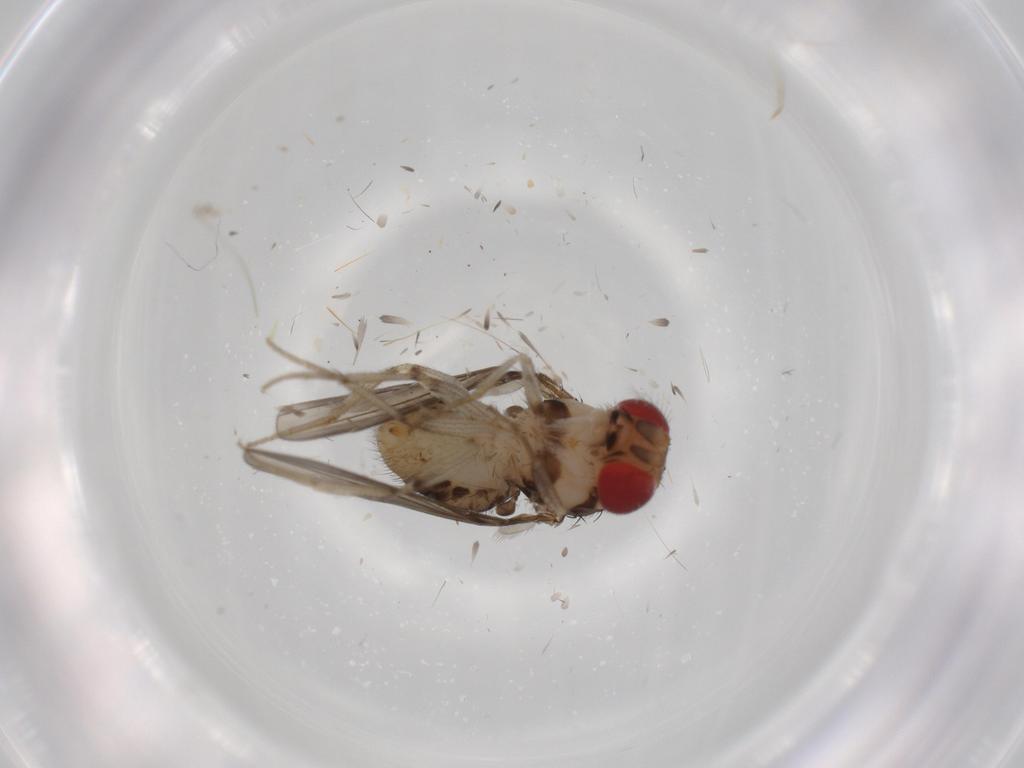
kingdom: Animalia
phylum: Arthropoda
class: Insecta
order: Diptera
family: Drosophilidae
